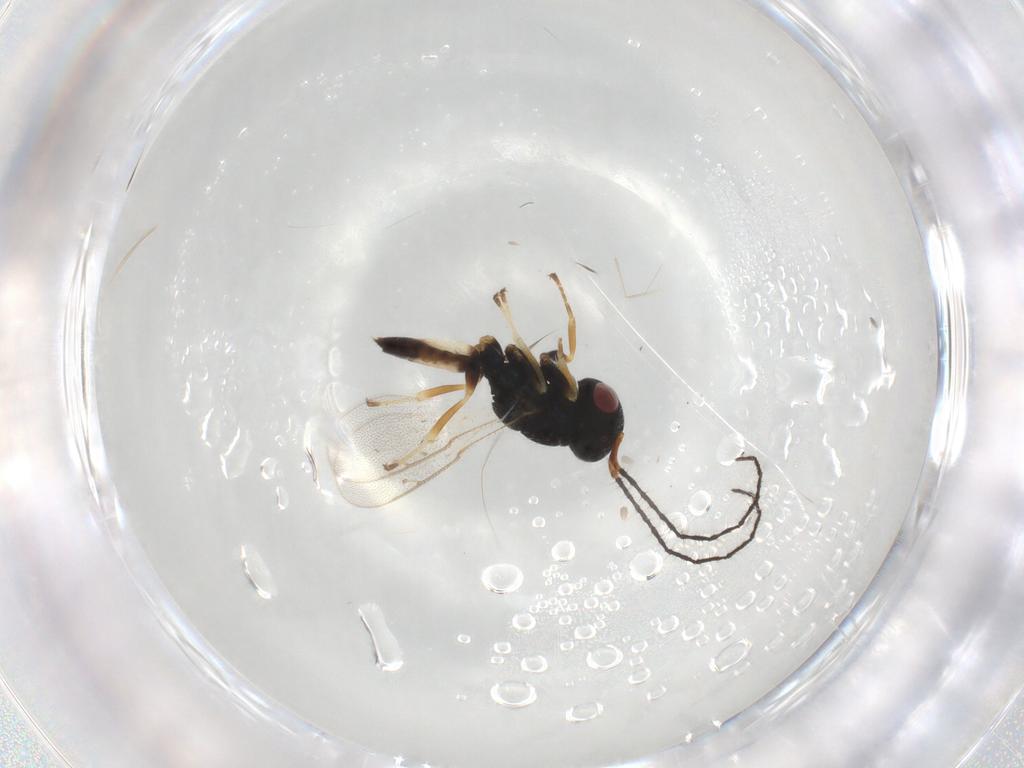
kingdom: Animalia
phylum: Arthropoda
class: Insecta
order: Hymenoptera
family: Pteromalidae
